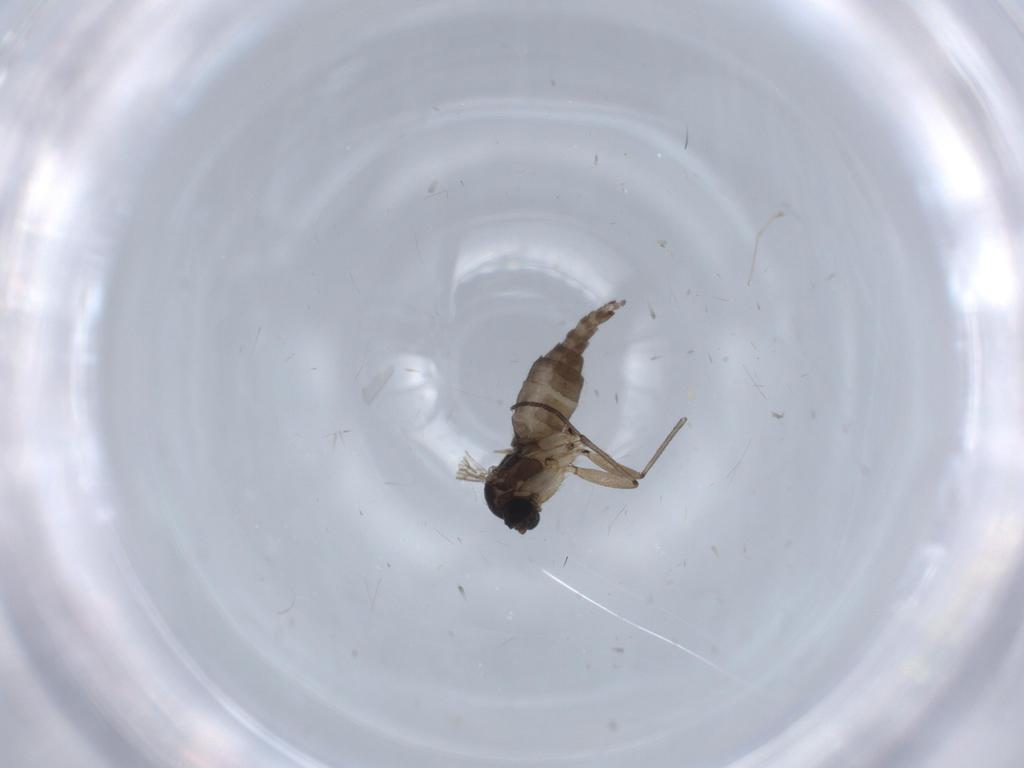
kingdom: Animalia
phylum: Arthropoda
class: Insecta
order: Diptera
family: Sciaridae
